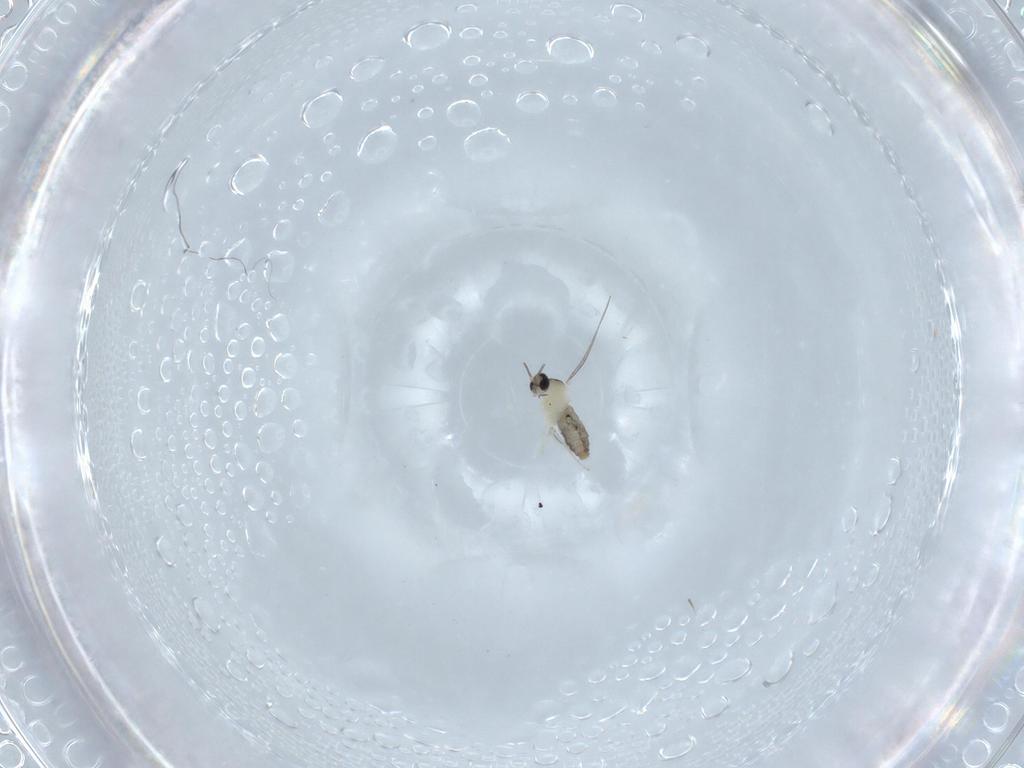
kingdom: Animalia
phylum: Arthropoda
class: Insecta
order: Diptera
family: Cecidomyiidae
